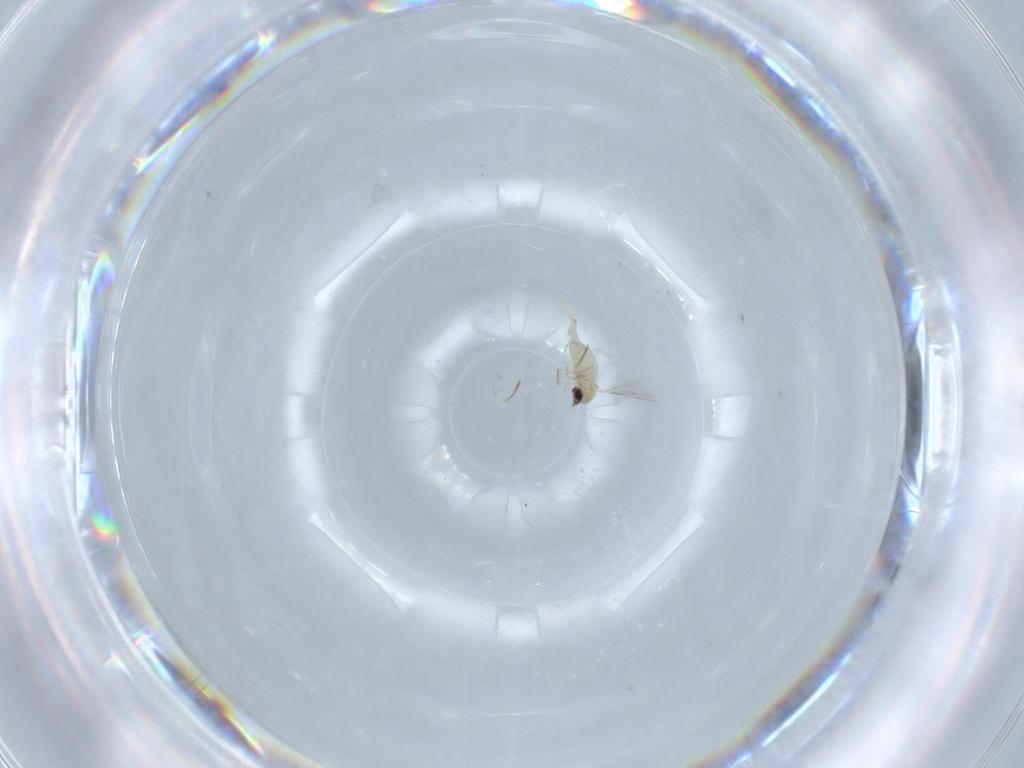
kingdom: Animalia
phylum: Arthropoda
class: Insecta
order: Diptera
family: Cecidomyiidae
